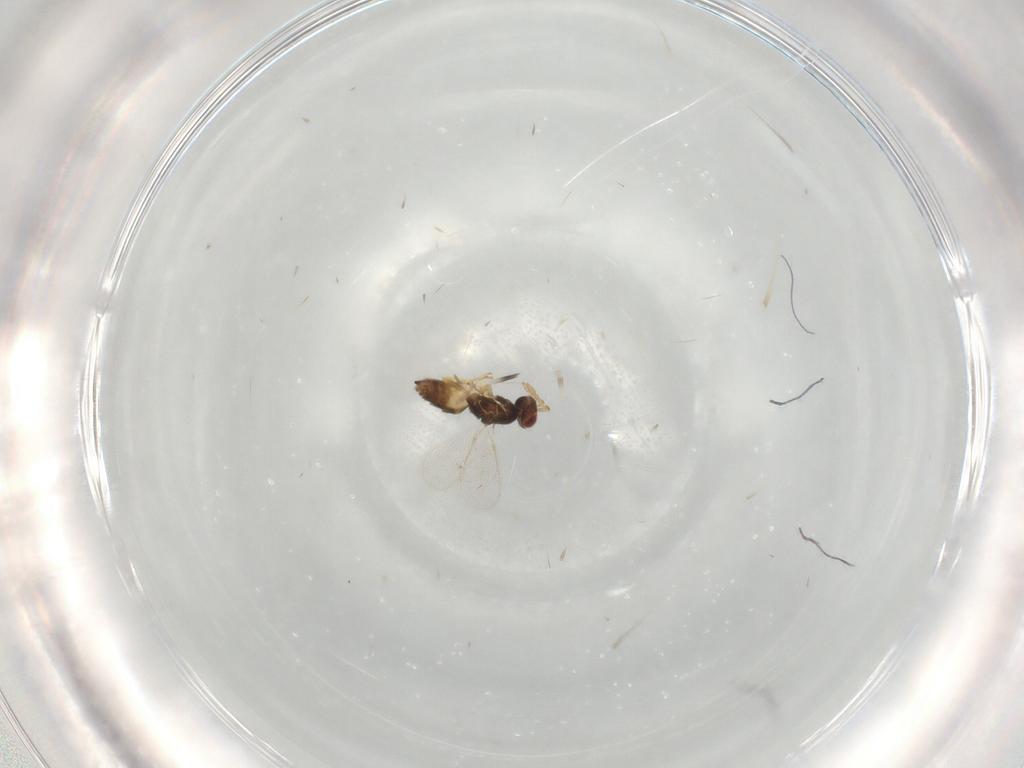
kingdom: Animalia
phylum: Arthropoda
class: Insecta
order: Hymenoptera
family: Eulophidae
